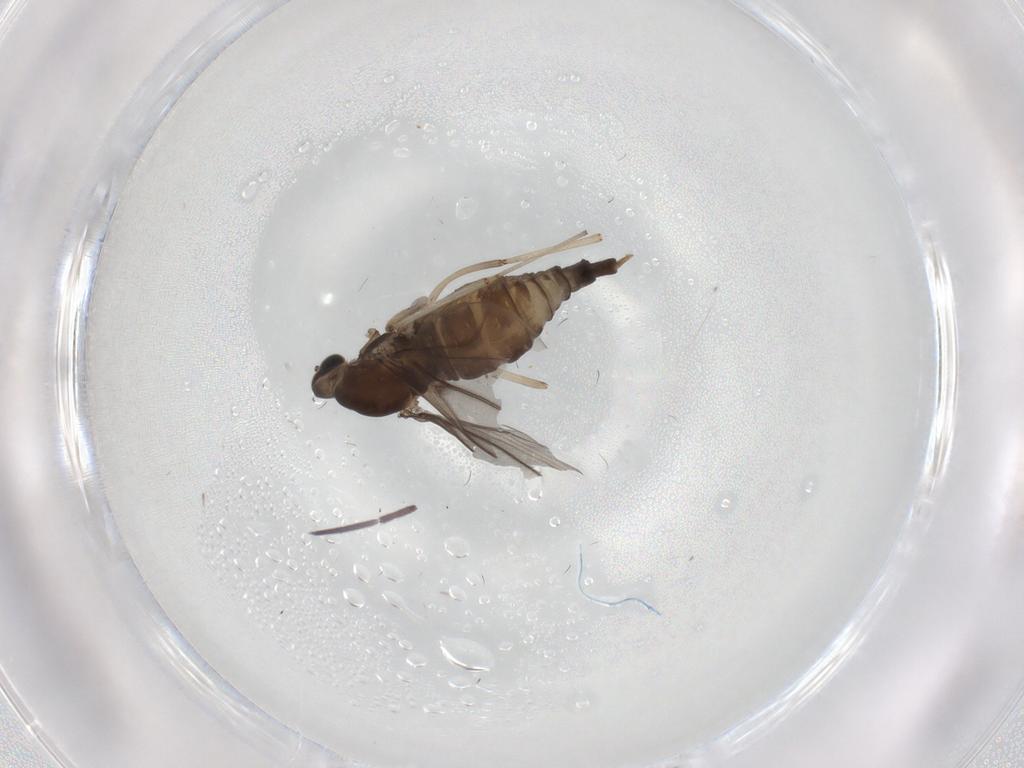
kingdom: Animalia
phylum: Arthropoda
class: Insecta
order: Diptera
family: Cecidomyiidae
